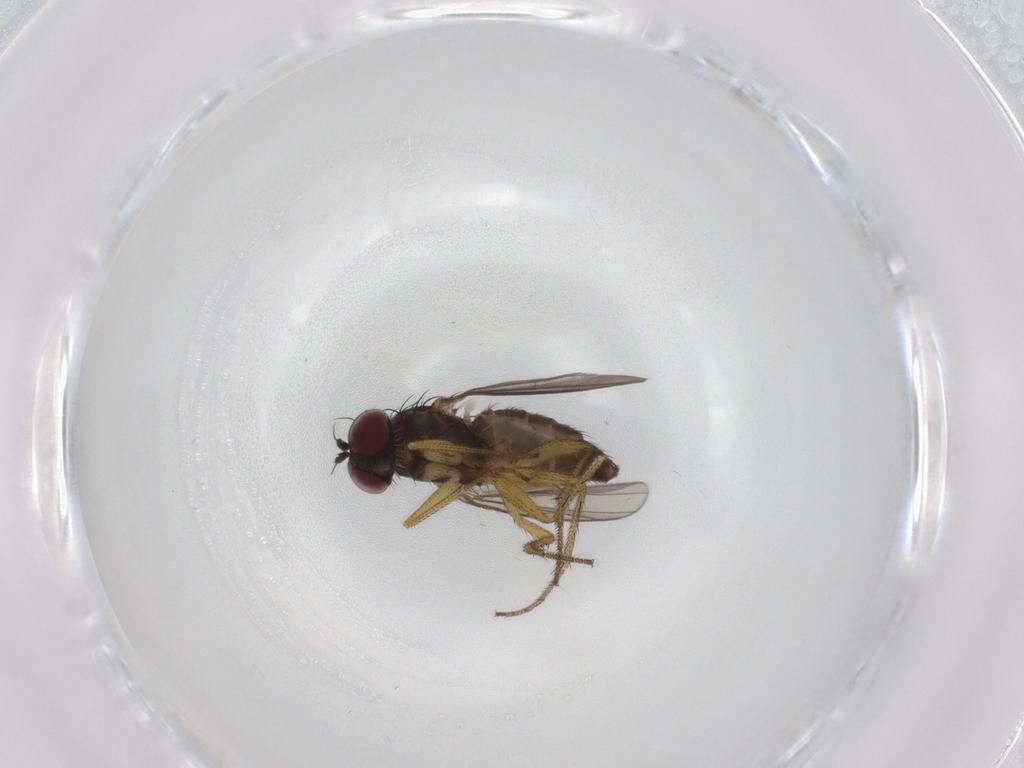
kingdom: Animalia
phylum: Arthropoda
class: Insecta
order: Diptera
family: Dolichopodidae
